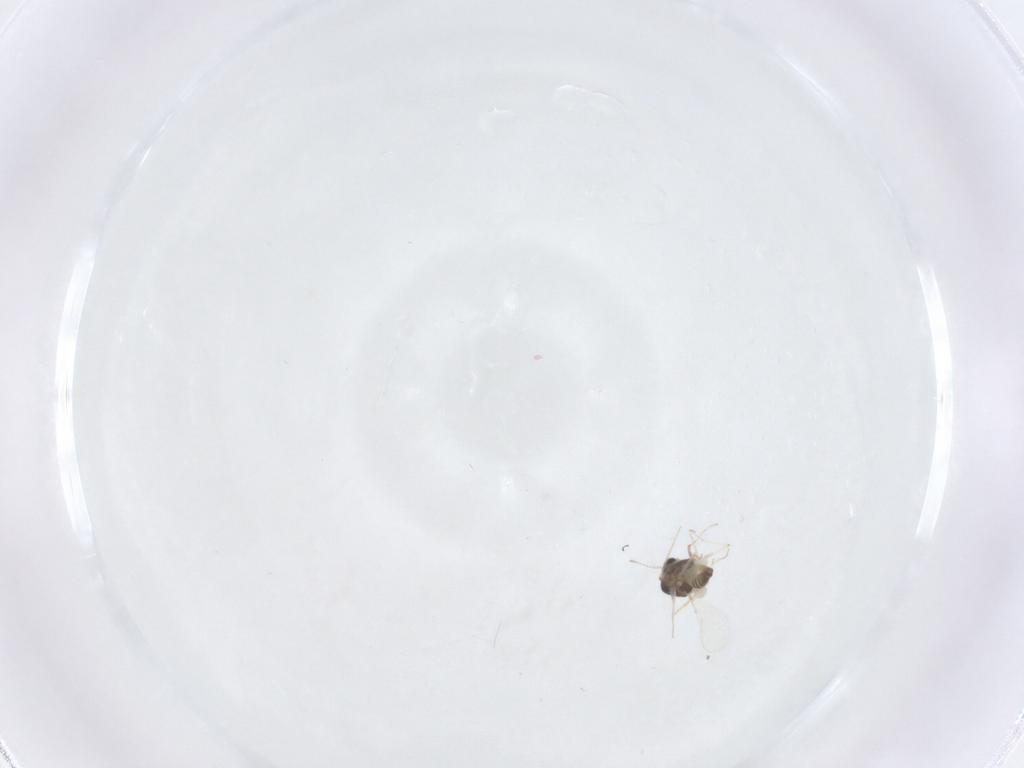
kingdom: Animalia
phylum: Arthropoda
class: Insecta
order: Diptera
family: Chironomidae
